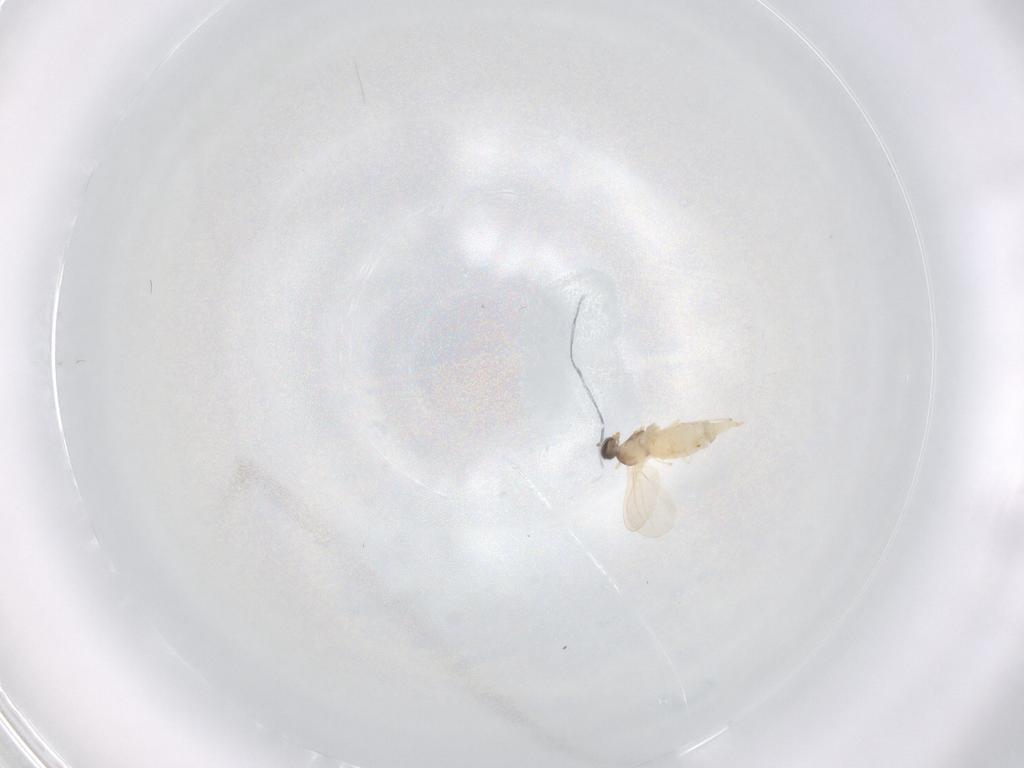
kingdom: Animalia
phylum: Arthropoda
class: Insecta
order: Diptera
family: Cecidomyiidae
